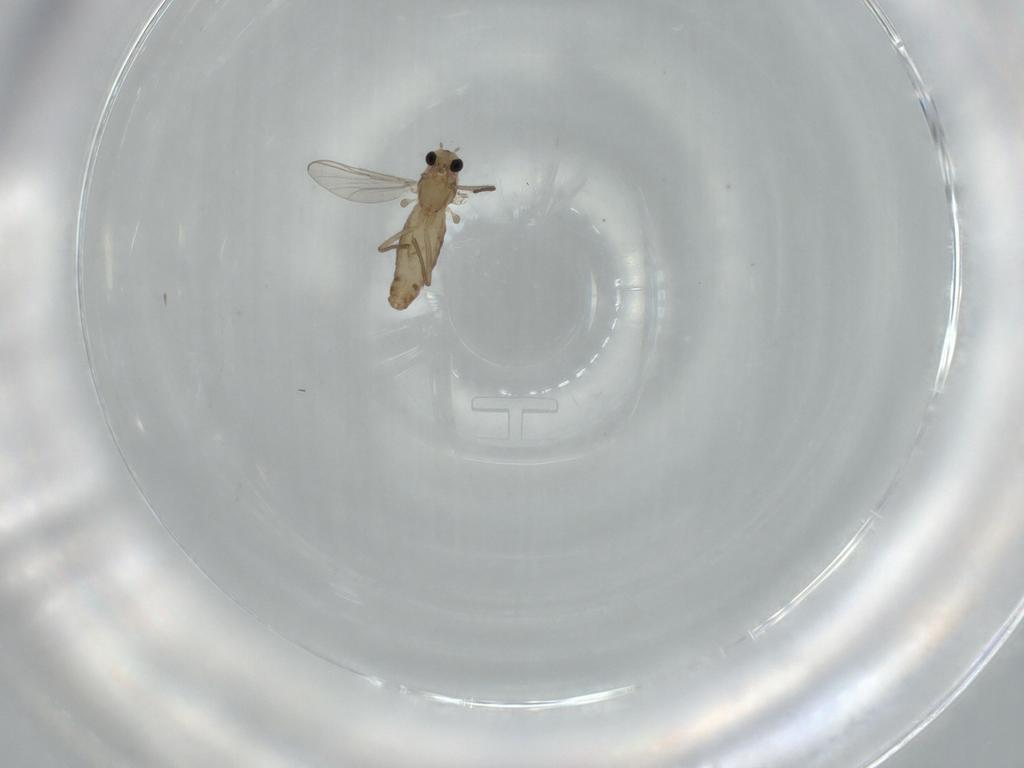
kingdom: Animalia
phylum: Arthropoda
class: Insecta
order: Diptera
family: Chironomidae
